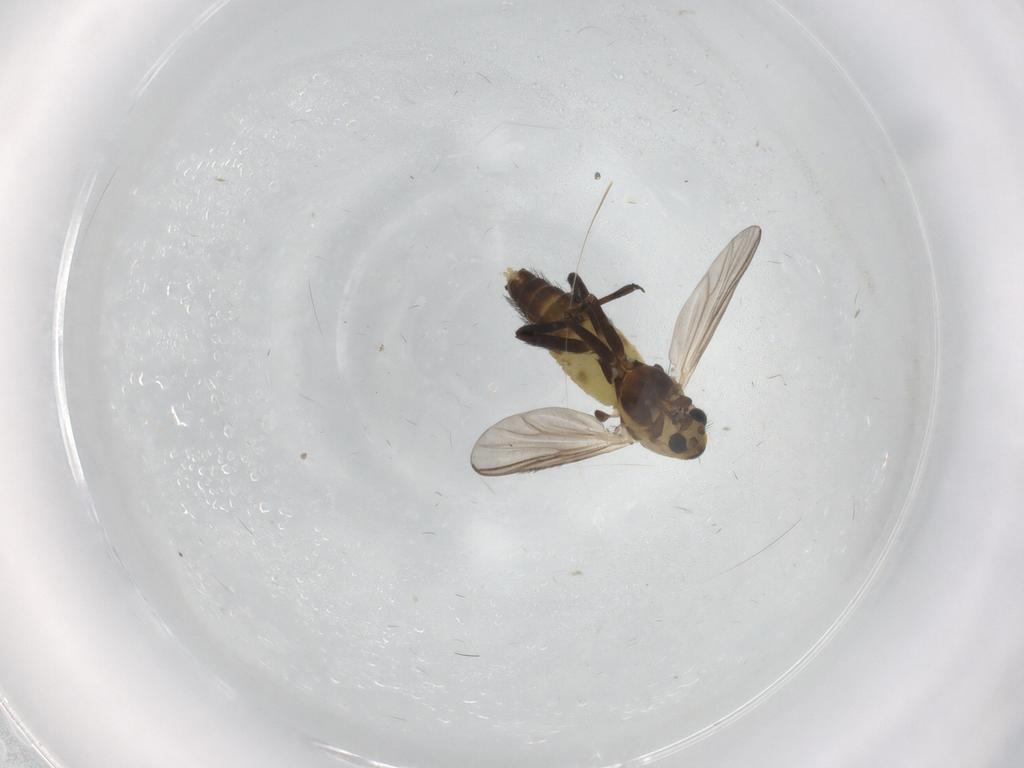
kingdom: Animalia
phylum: Arthropoda
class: Insecta
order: Diptera
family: Chironomidae
